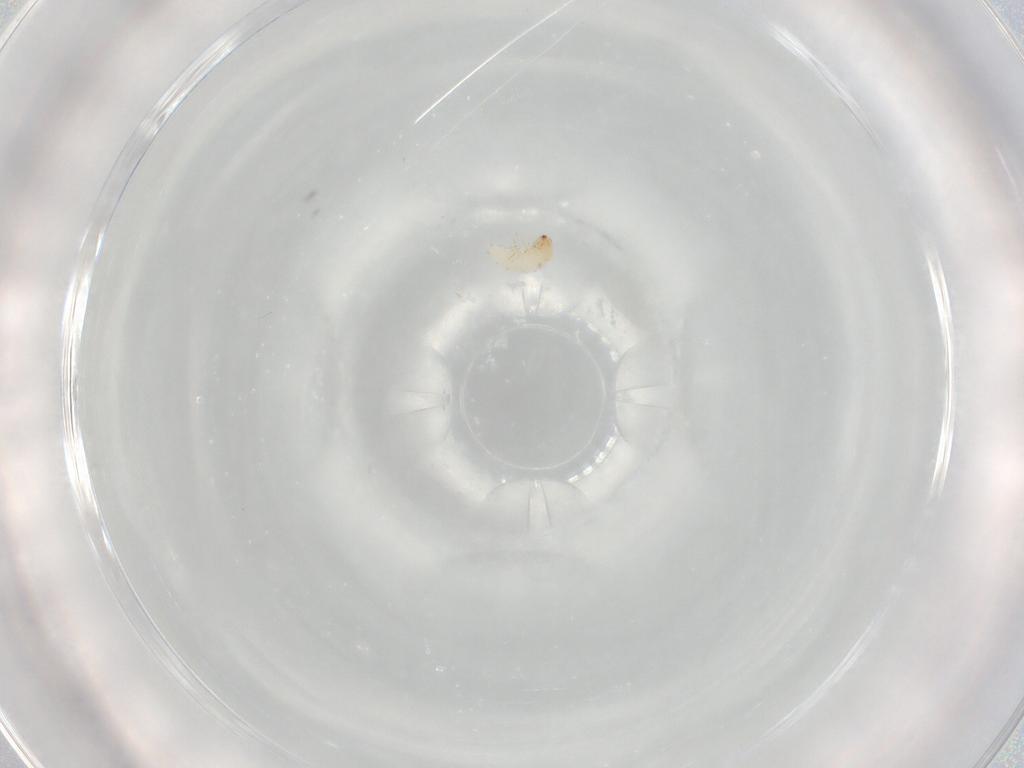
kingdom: Animalia
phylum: Arthropoda
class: Insecta
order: Coleoptera
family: Chrysomelidae
